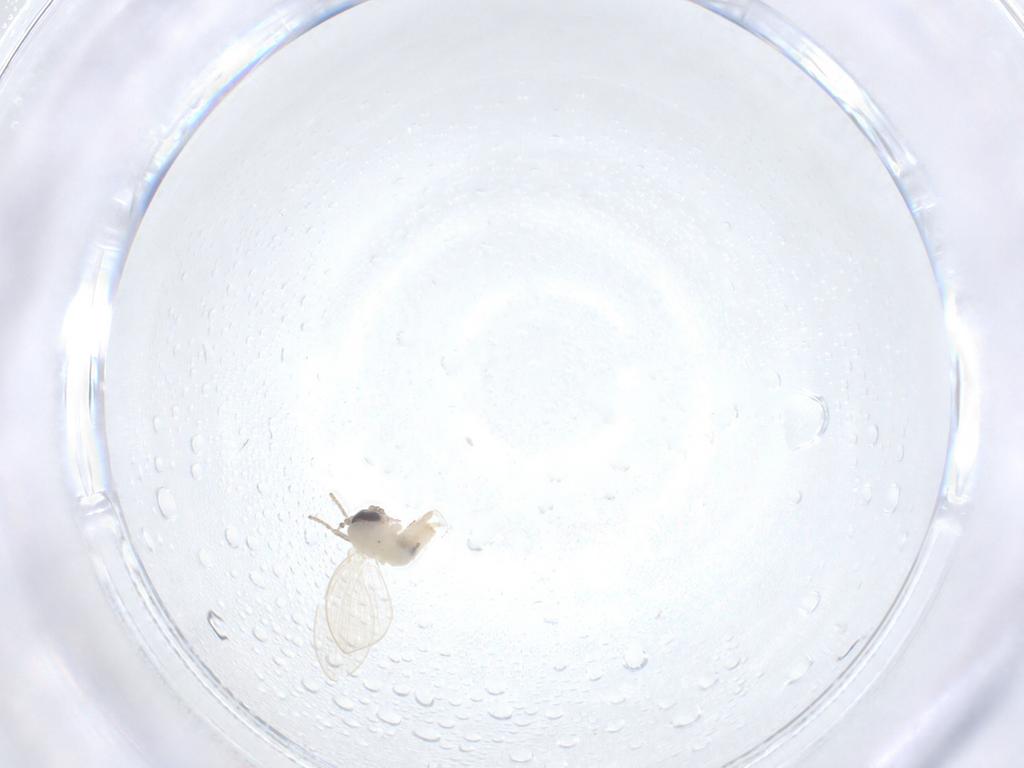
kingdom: Animalia
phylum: Arthropoda
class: Insecta
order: Diptera
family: Psychodidae
